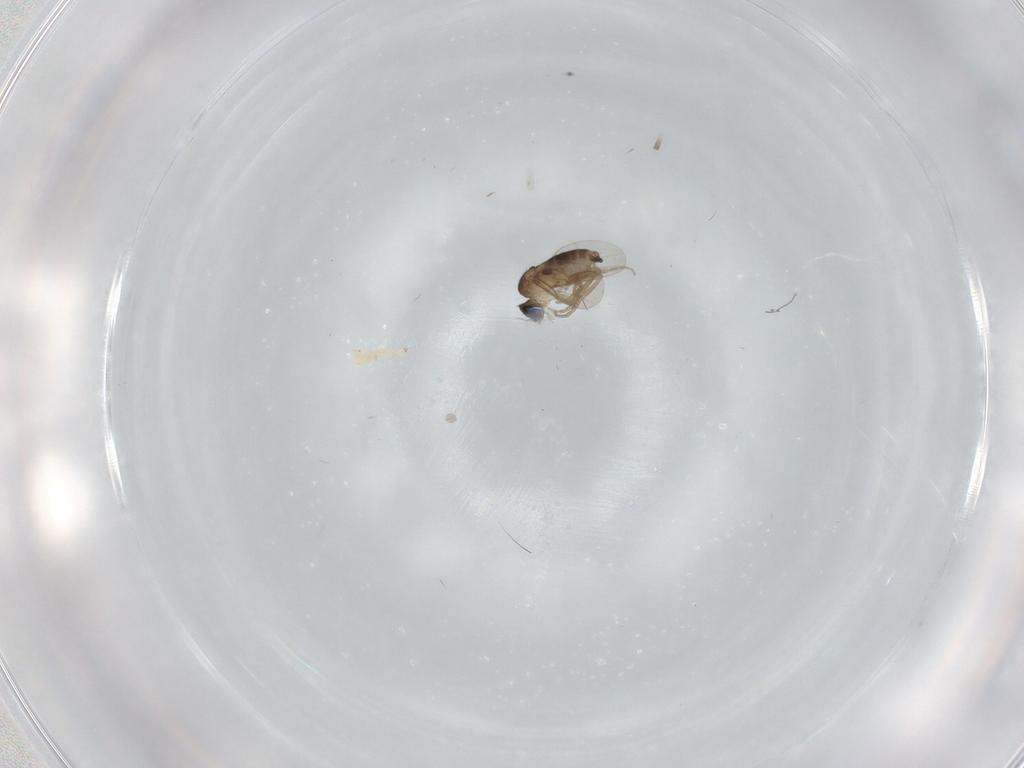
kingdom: Animalia
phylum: Arthropoda
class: Insecta
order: Diptera
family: Phoridae
